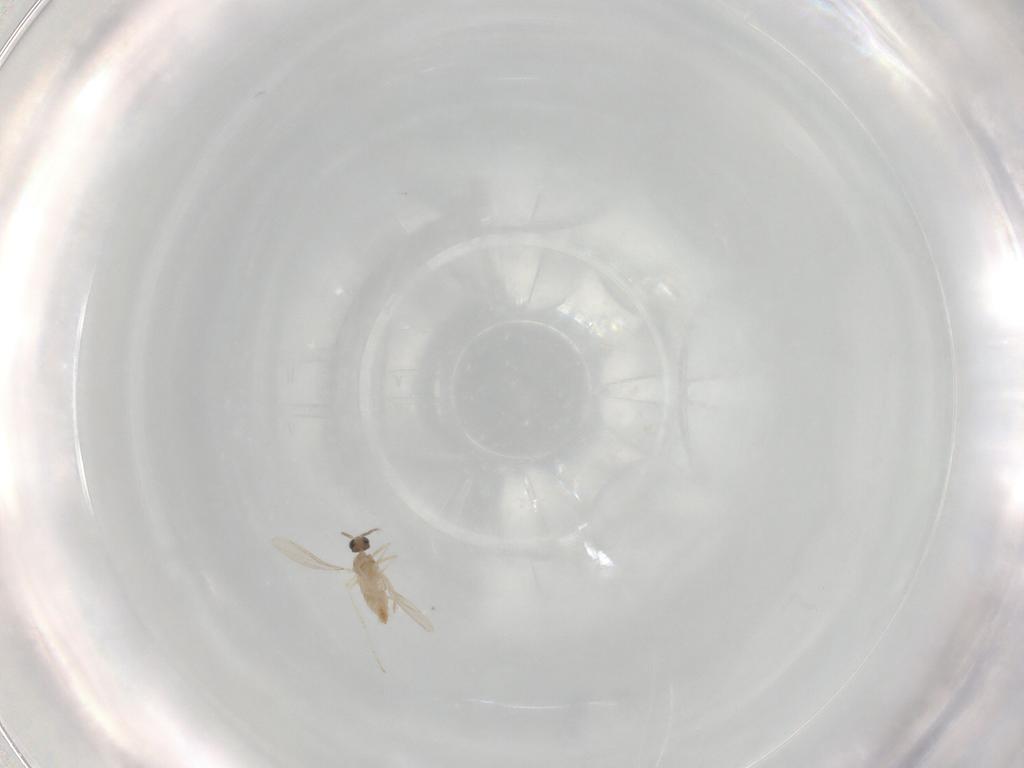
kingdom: Animalia
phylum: Arthropoda
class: Insecta
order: Diptera
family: Cecidomyiidae
